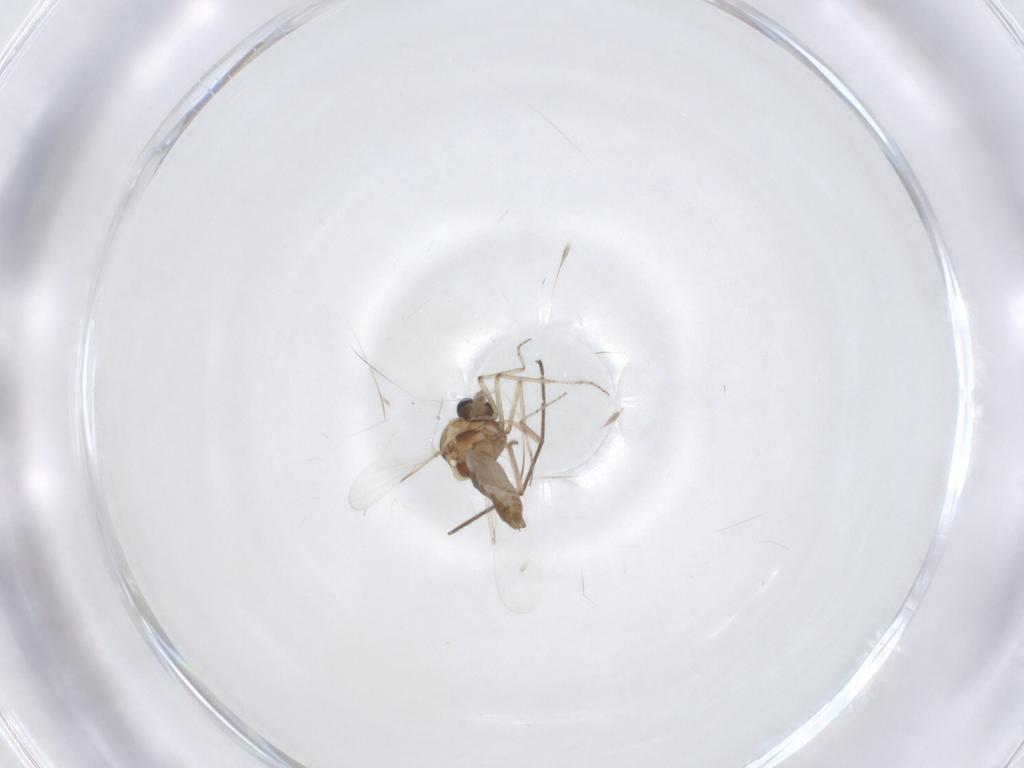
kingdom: Animalia
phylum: Arthropoda
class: Insecta
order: Diptera
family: Ceratopogonidae
